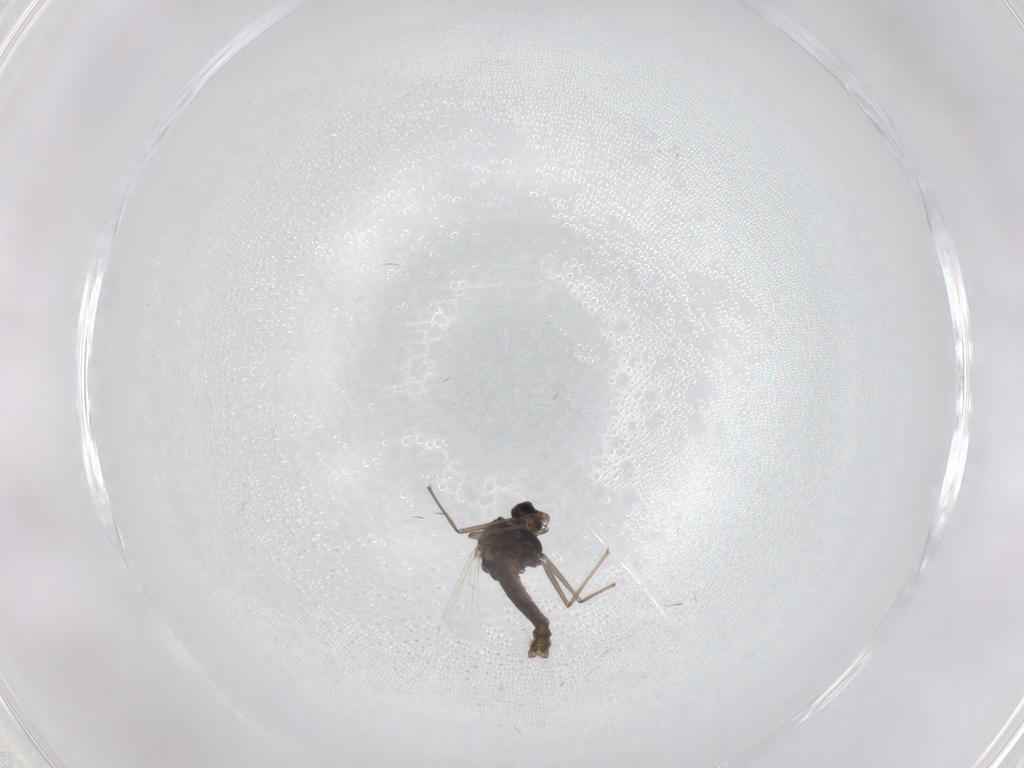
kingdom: Animalia
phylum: Arthropoda
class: Insecta
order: Diptera
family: Chironomidae
